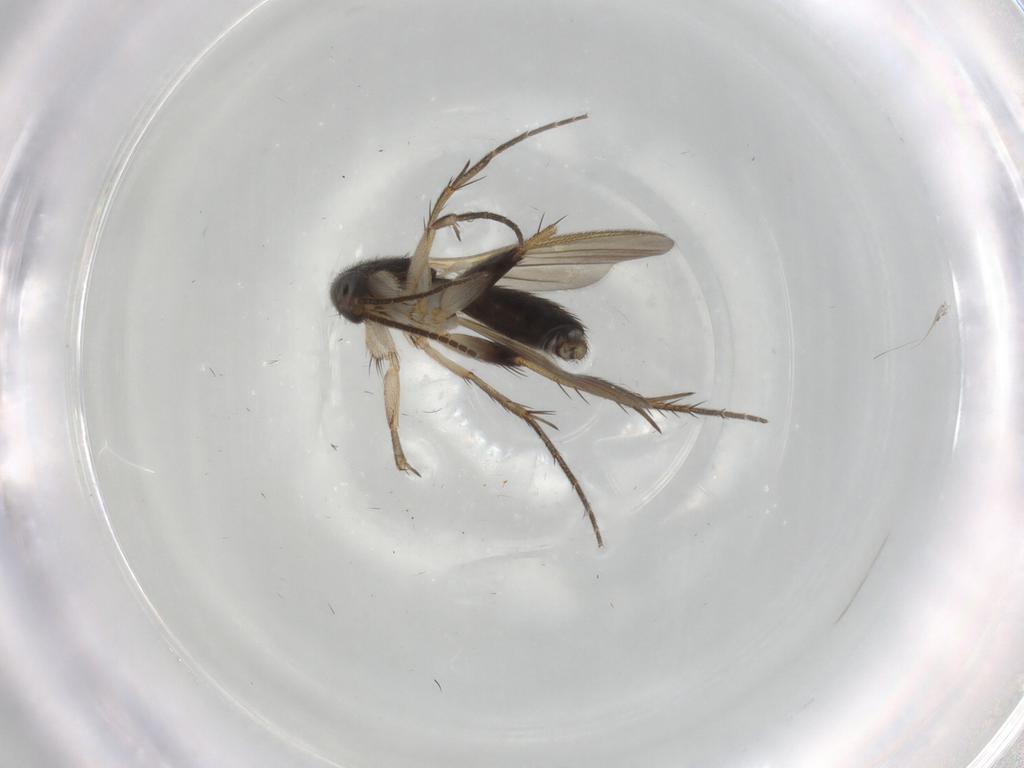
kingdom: Animalia
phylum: Arthropoda
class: Insecta
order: Diptera
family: Mycetophilidae
